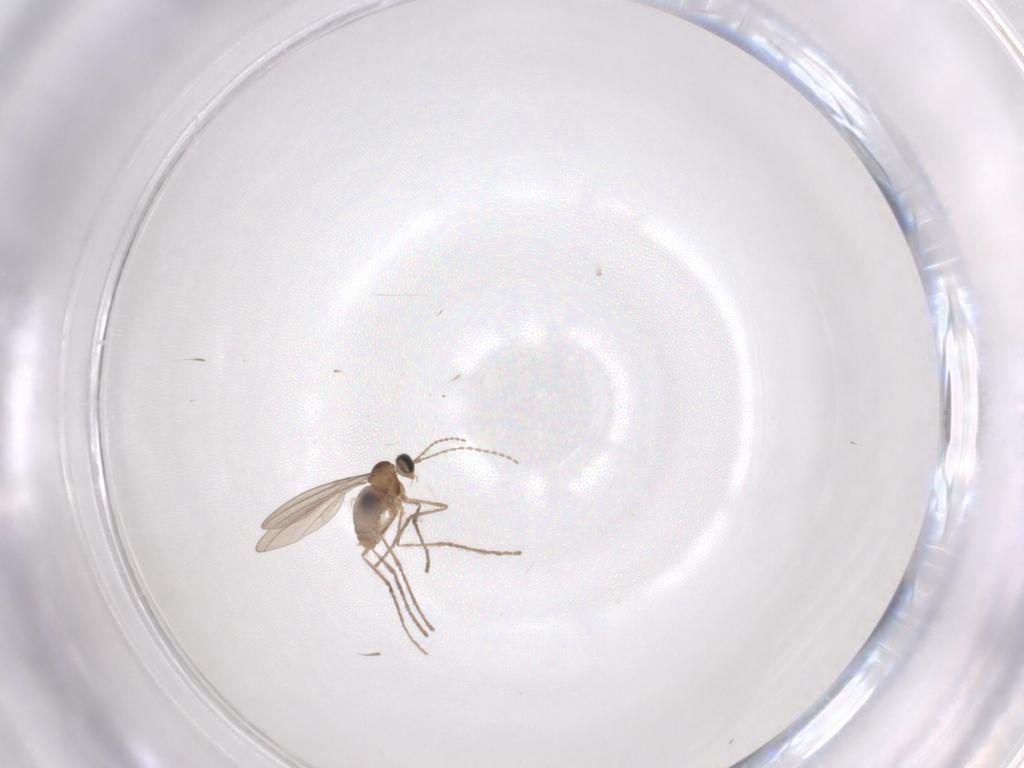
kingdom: Animalia
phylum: Arthropoda
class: Insecta
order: Diptera
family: Cecidomyiidae
